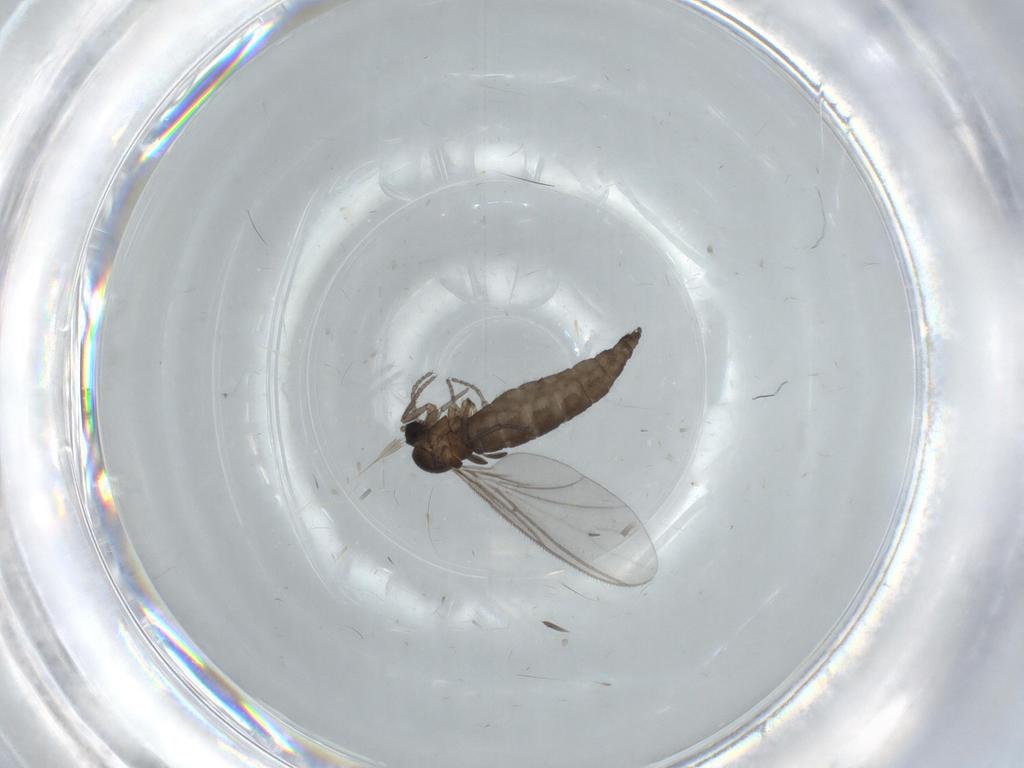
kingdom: Animalia
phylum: Arthropoda
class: Insecta
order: Diptera
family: Sciaridae
